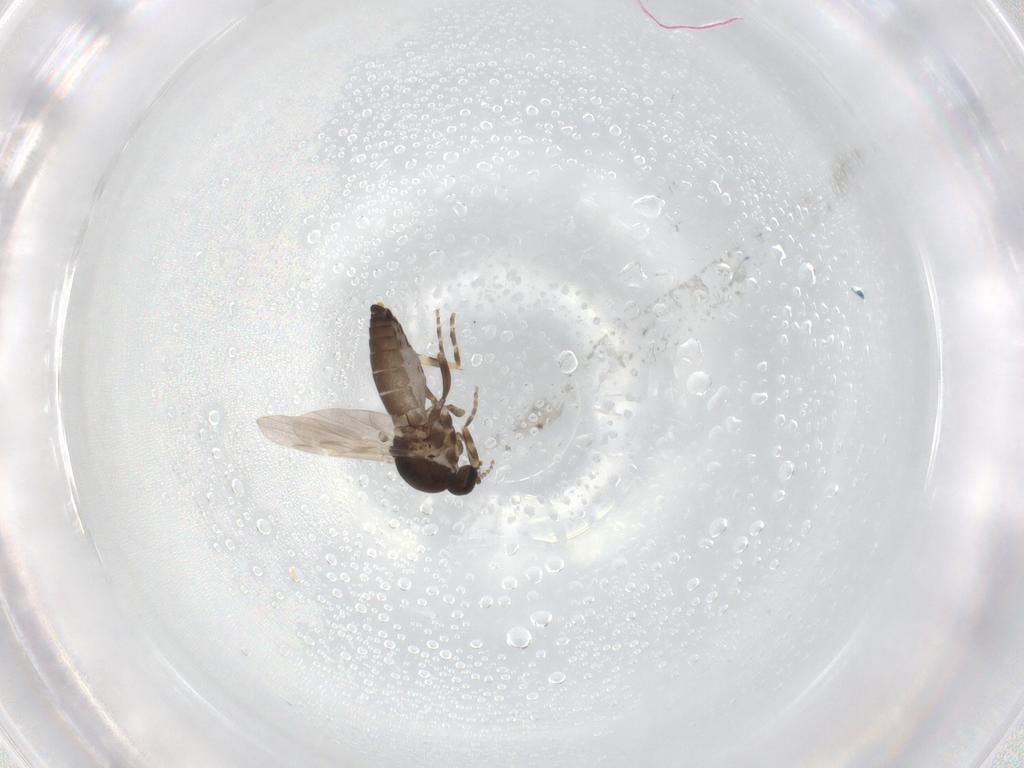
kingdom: Animalia
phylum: Arthropoda
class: Insecta
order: Diptera
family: Ceratopogonidae
